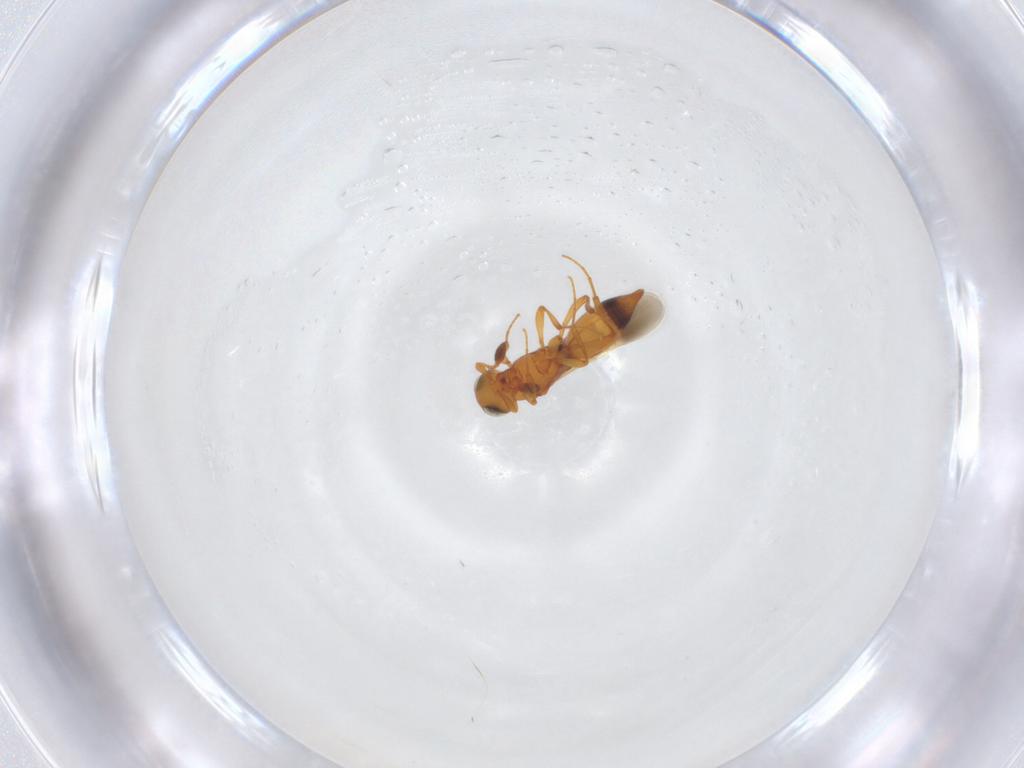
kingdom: Animalia
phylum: Arthropoda
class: Insecta
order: Hymenoptera
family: Platygastridae
